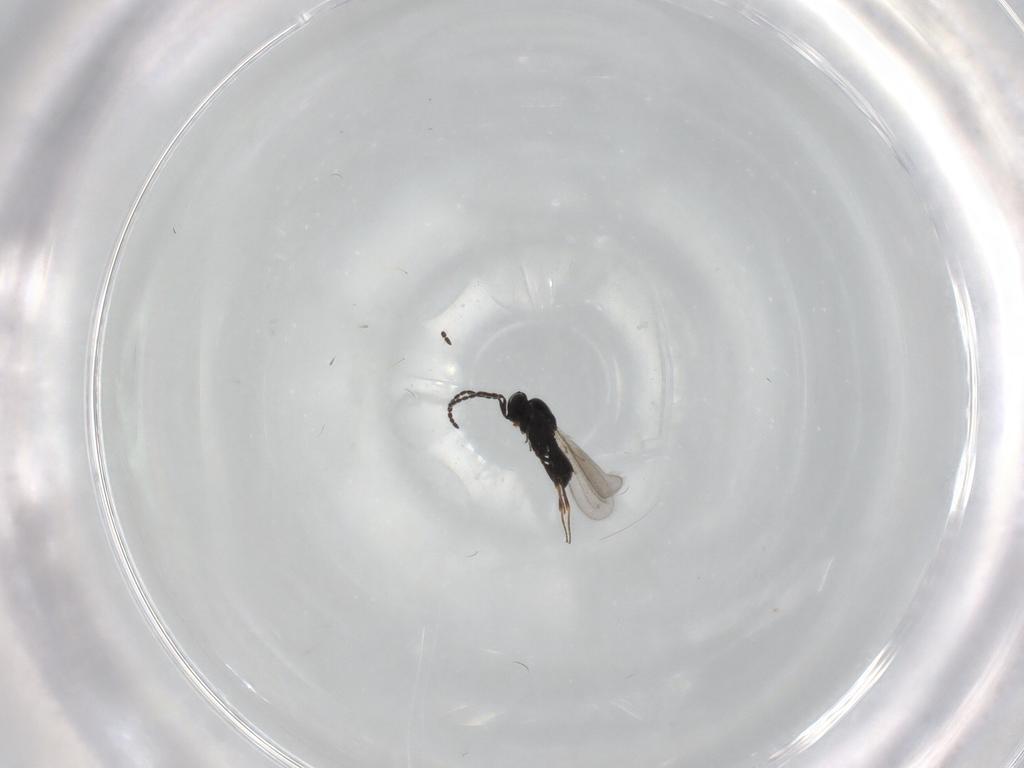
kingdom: Animalia
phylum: Arthropoda
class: Insecta
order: Hymenoptera
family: Scelionidae
